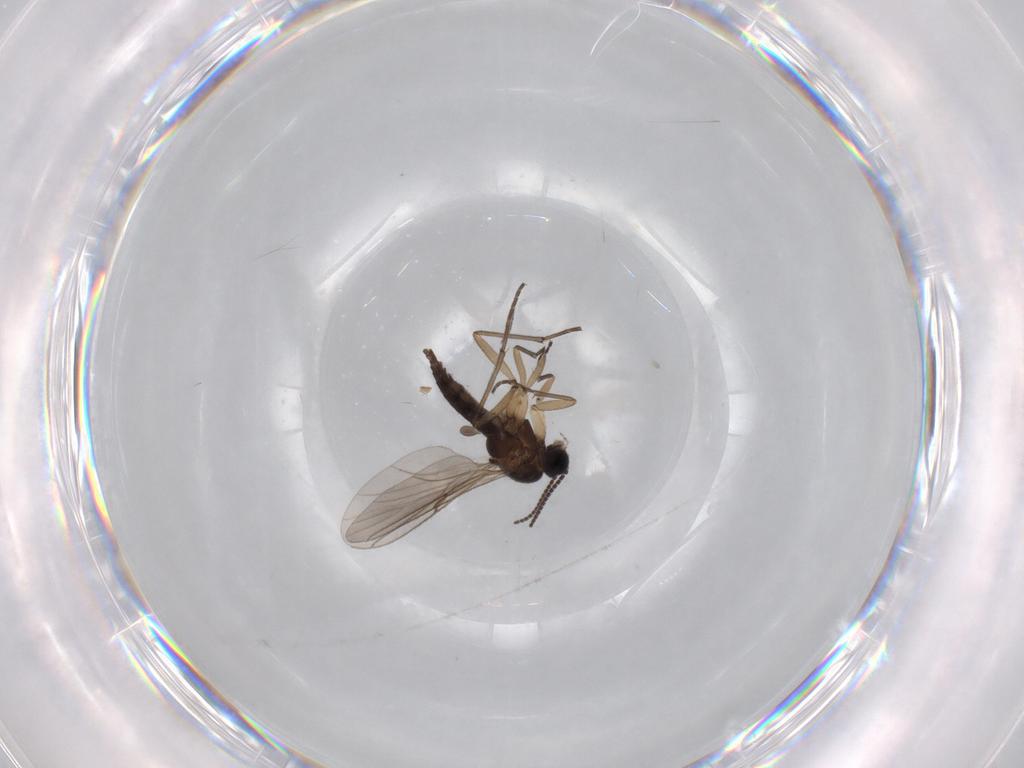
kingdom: Animalia
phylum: Arthropoda
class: Insecta
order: Diptera
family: Sciaridae
